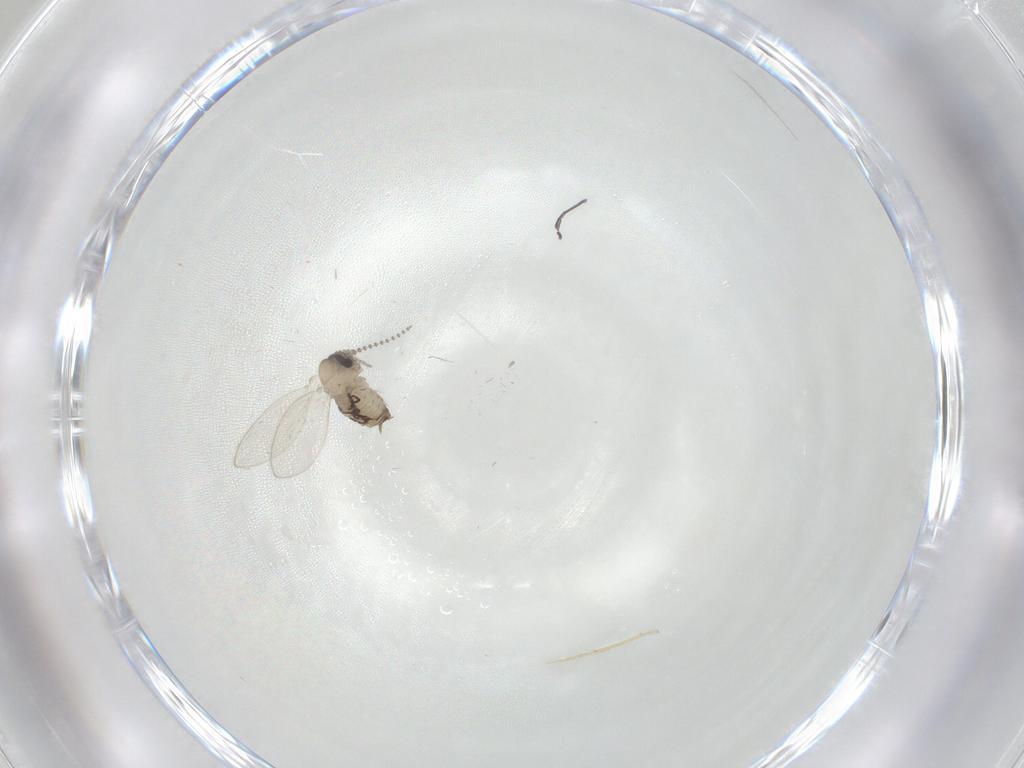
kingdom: Animalia
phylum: Arthropoda
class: Insecta
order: Diptera
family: Psychodidae
